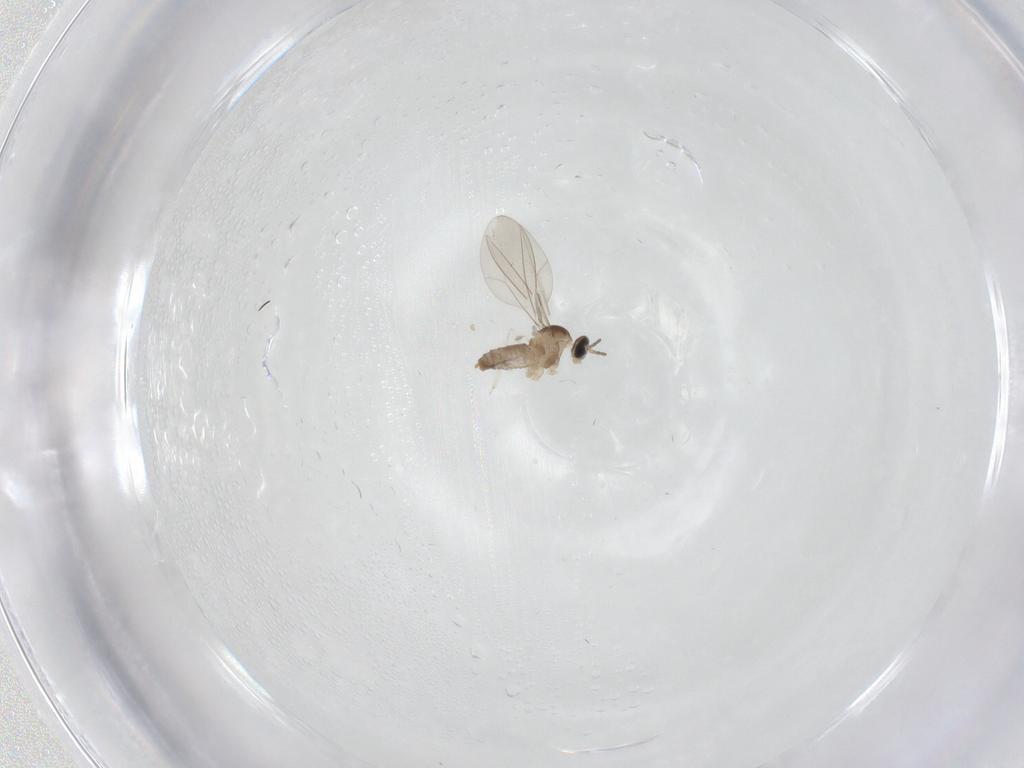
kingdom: Animalia
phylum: Arthropoda
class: Insecta
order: Diptera
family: Cecidomyiidae
